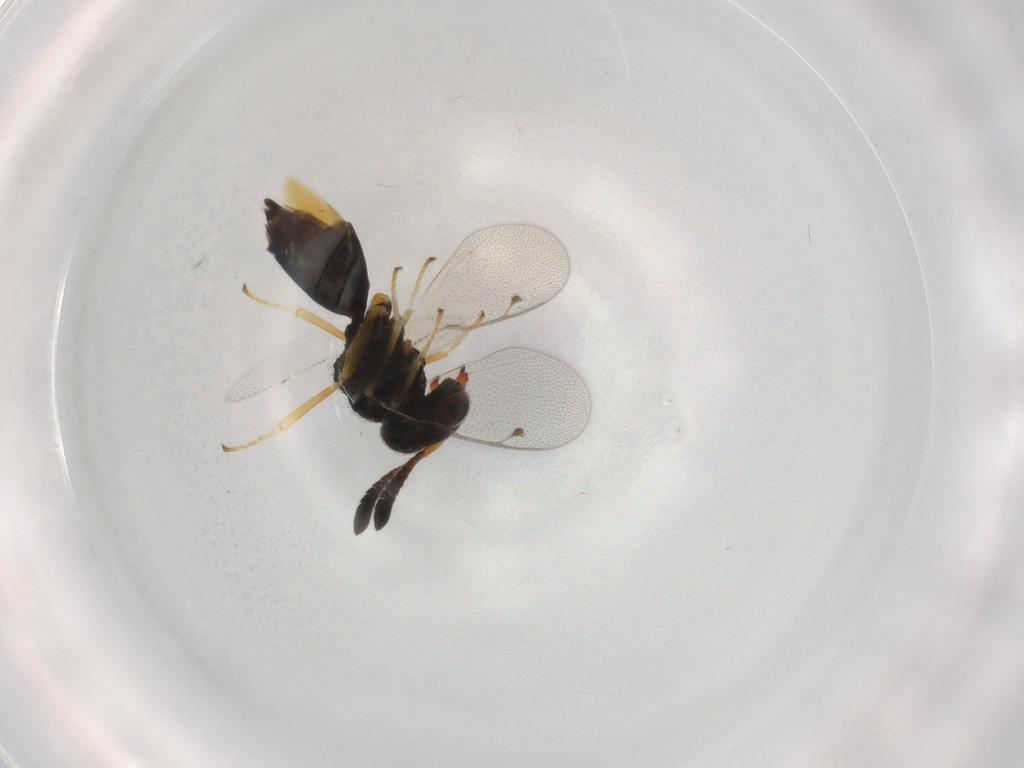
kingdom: Animalia
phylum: Arthropoda
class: Insecta
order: Hymenoptera
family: Agaonidae
